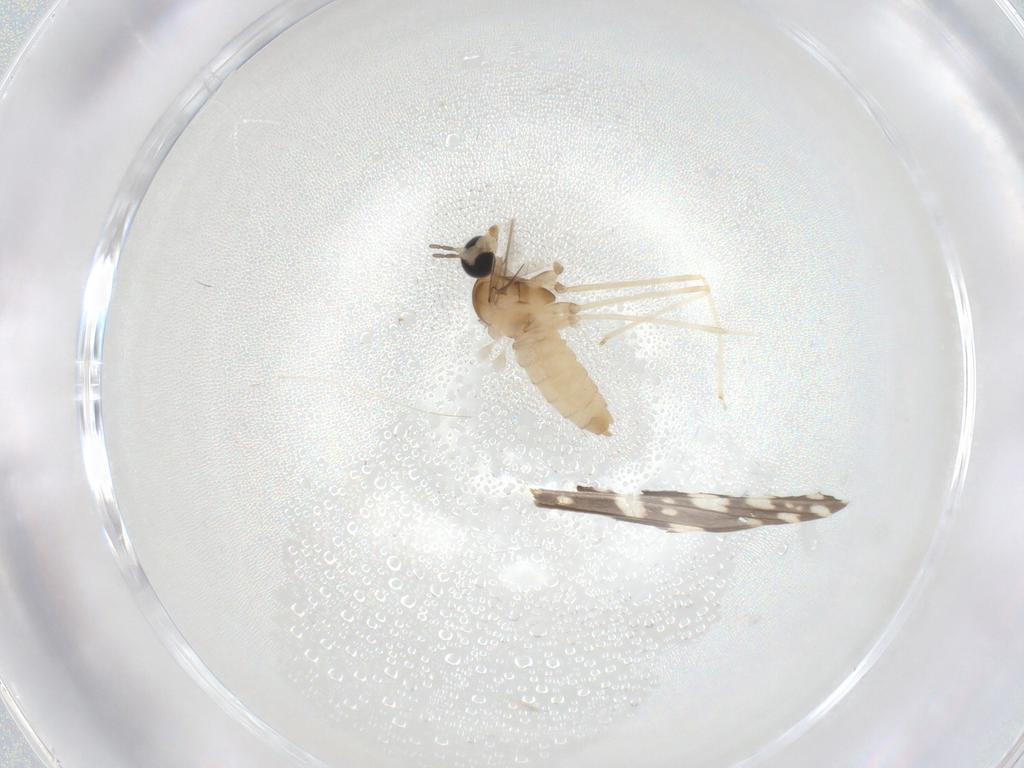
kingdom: Animalia
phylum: Arthropoda
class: Insecta
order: Diptera
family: Cecidomyiidae
